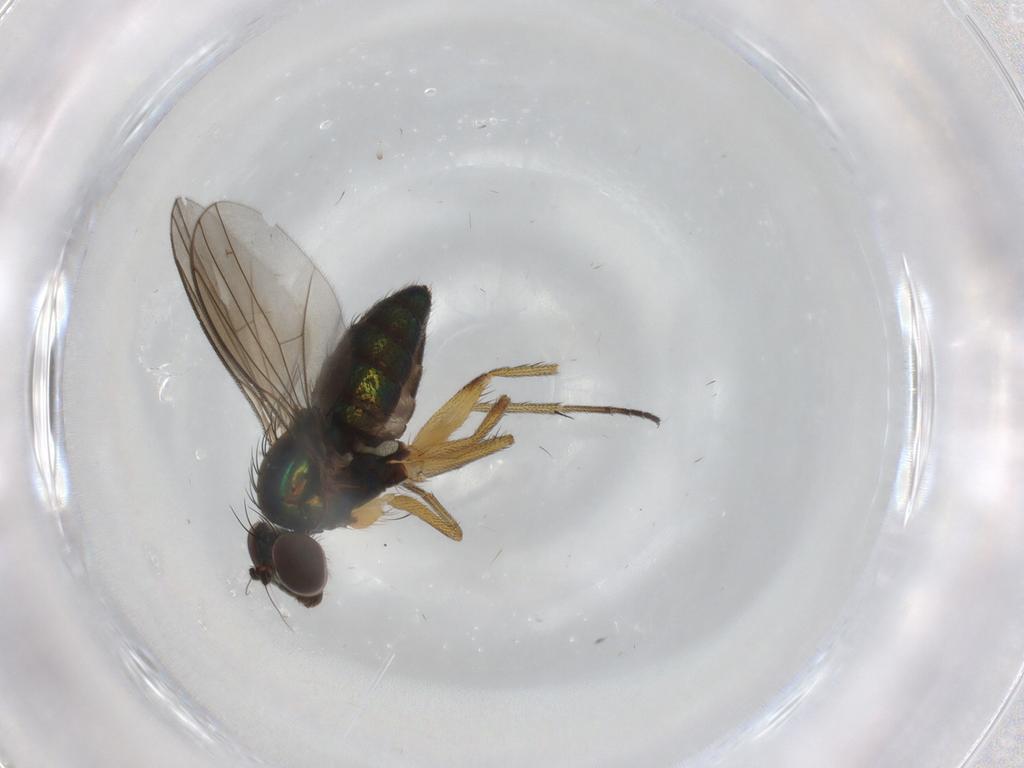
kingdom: Animalia
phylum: Arthropoda
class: Insecta
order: Diptera
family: Dolichopodidae
